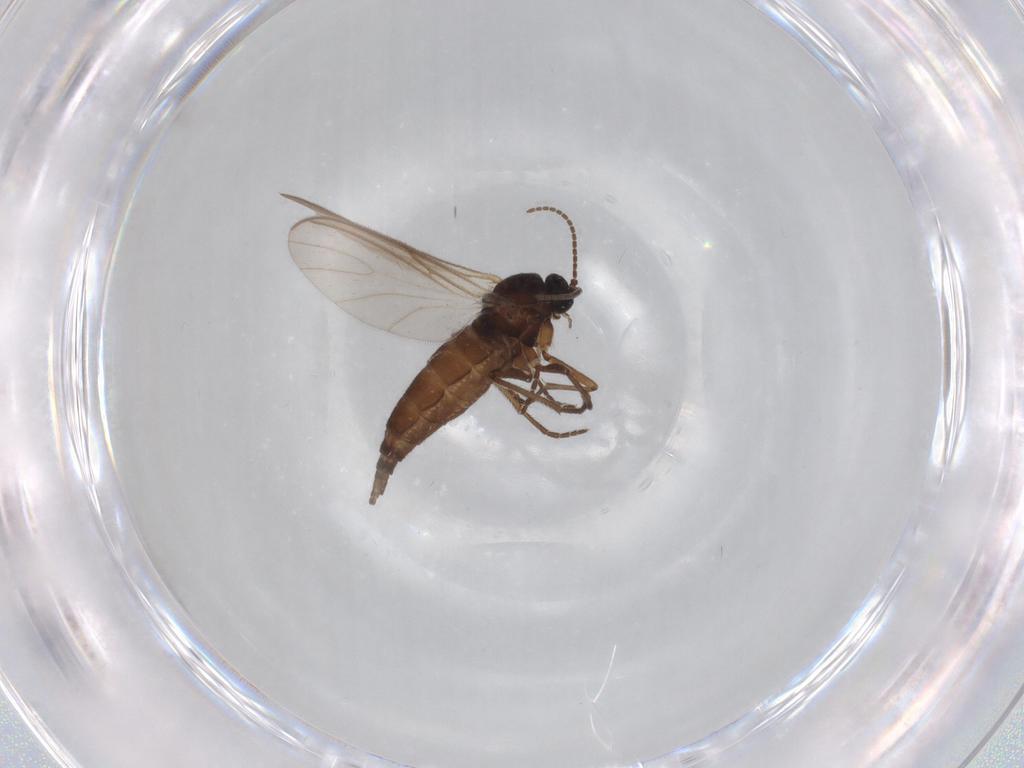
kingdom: Animalia
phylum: Arthropoda
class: Insecta
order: Diptera
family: Sciaridae
